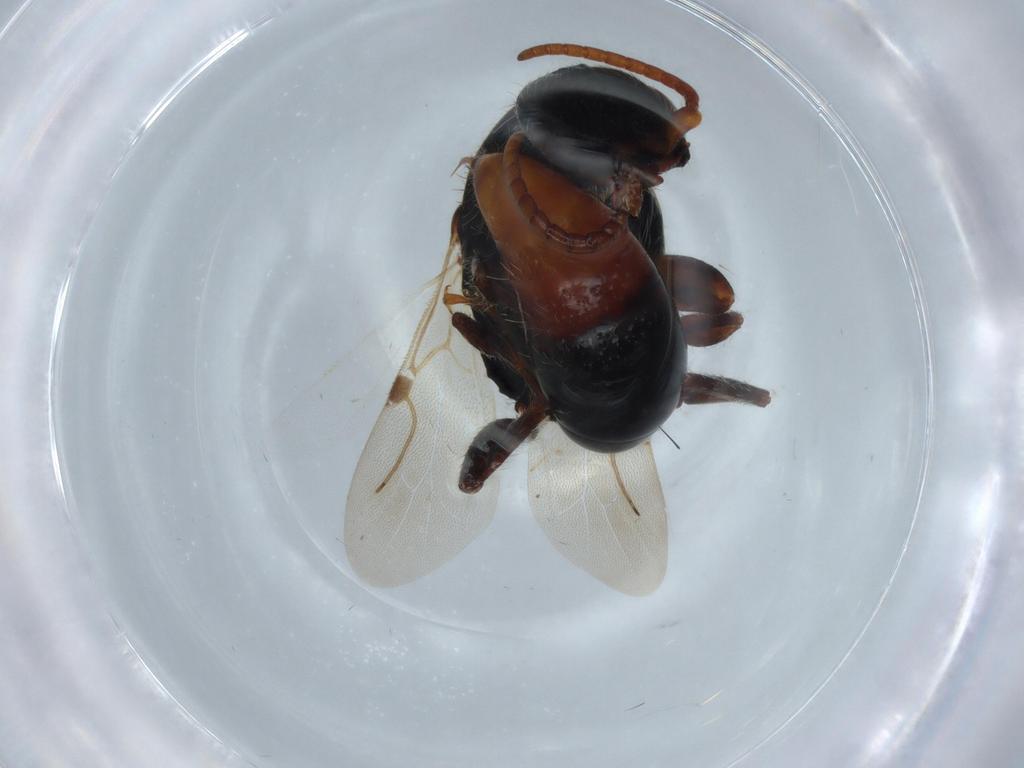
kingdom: Animalia
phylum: Arthropoda
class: Insecta
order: Hymenoptera
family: Bethylidae
